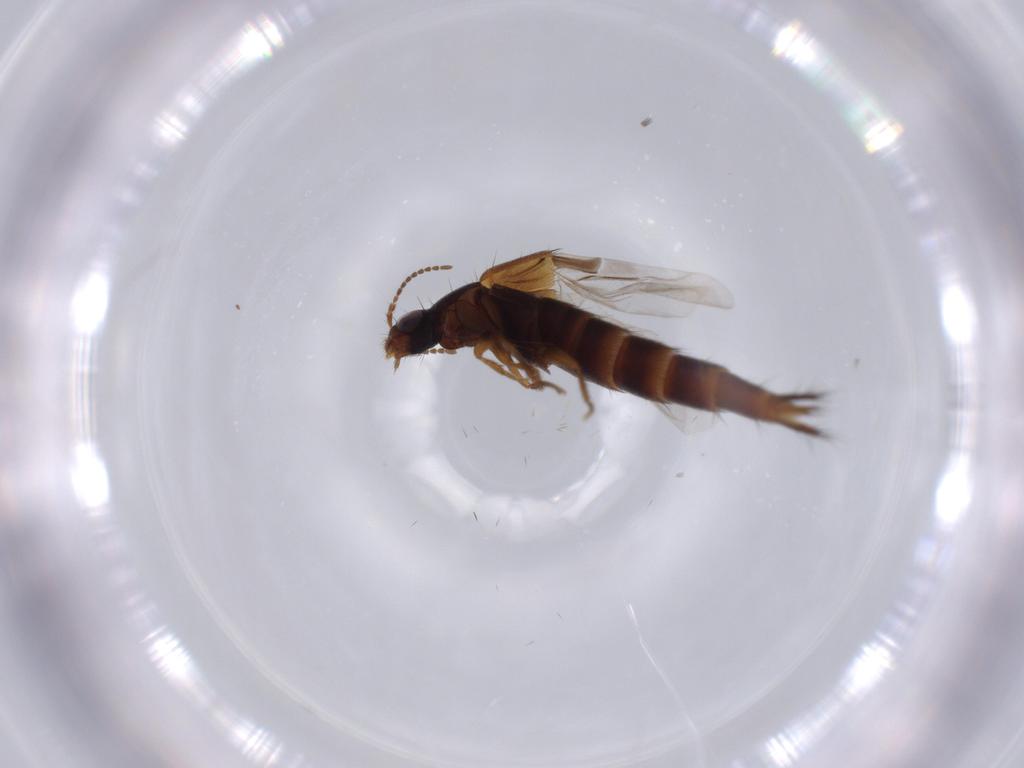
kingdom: Animalia
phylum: Arthropoda
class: Insecta
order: Coleoptera
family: Staphylinidae
